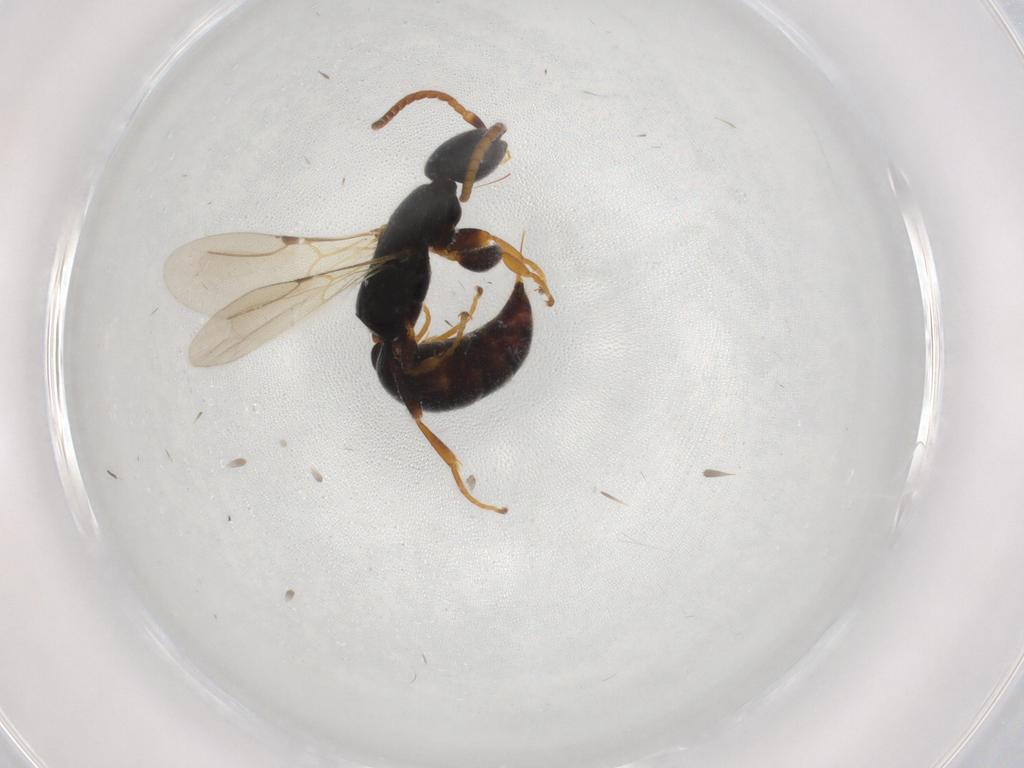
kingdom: Animalia
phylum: Arthropoda
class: Insecta
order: Hymenoptera
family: Bethylidae
